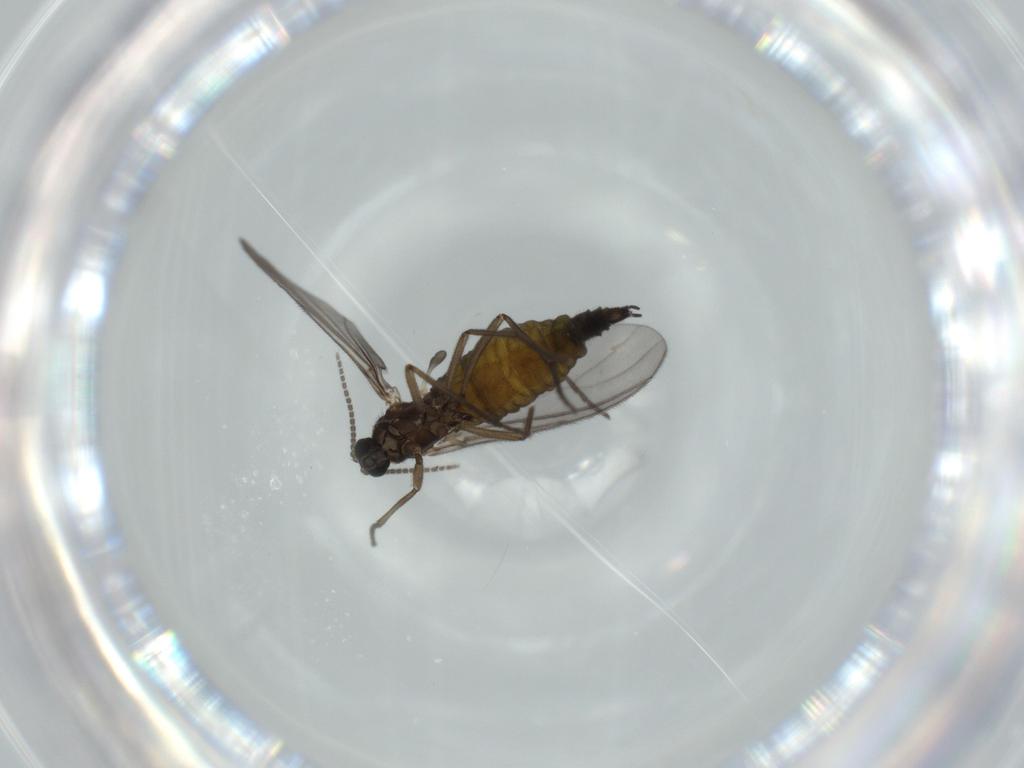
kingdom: Animalia
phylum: Arthropoda
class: Insecta
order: Diptera
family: Sciaridae
